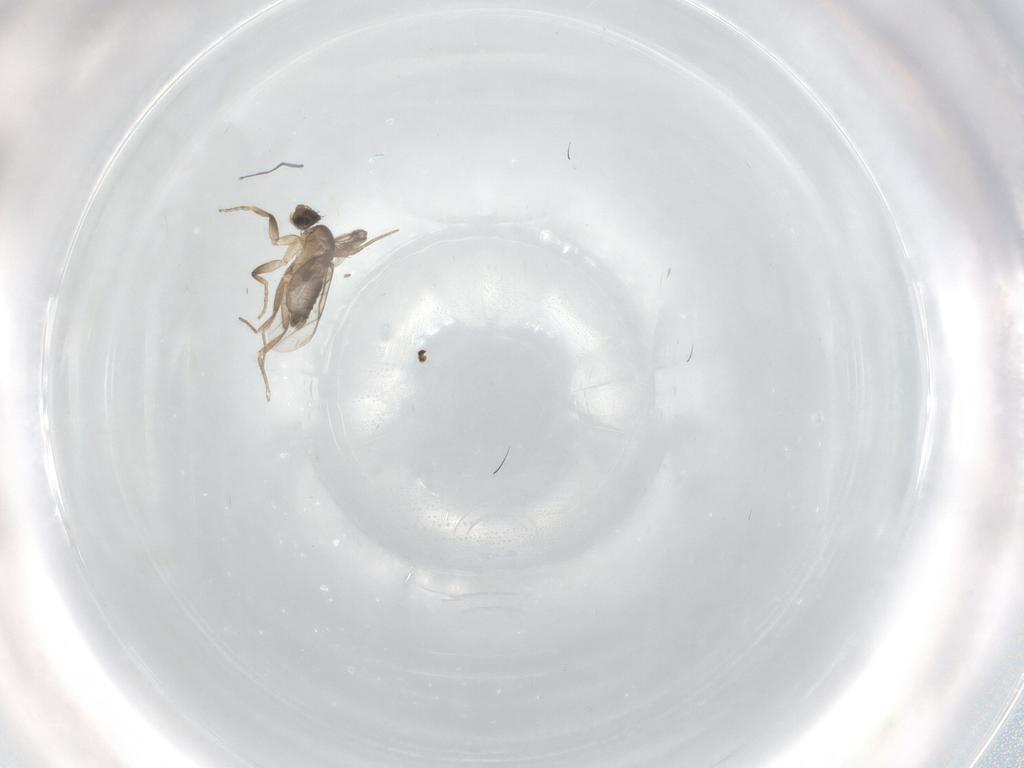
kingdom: Animalia
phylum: Arthropoda
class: Insecta
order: Diptera
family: Phoridae
